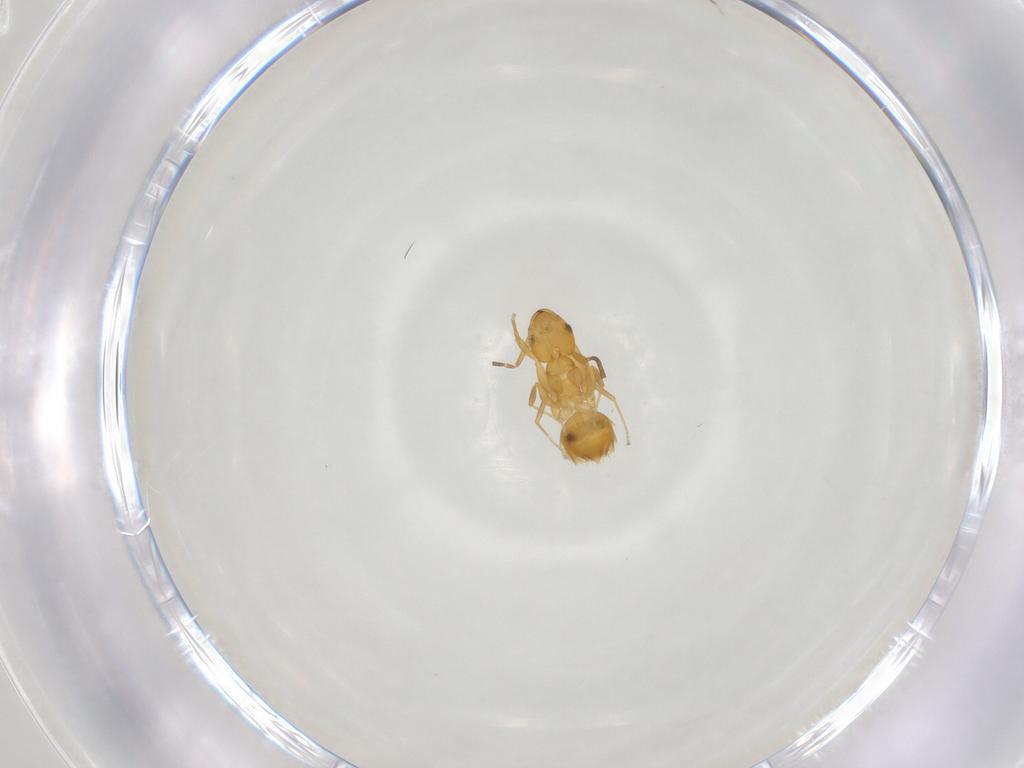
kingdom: Animalia
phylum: Arthropoda
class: Insecta
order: Hymenoptera
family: Formicidae
